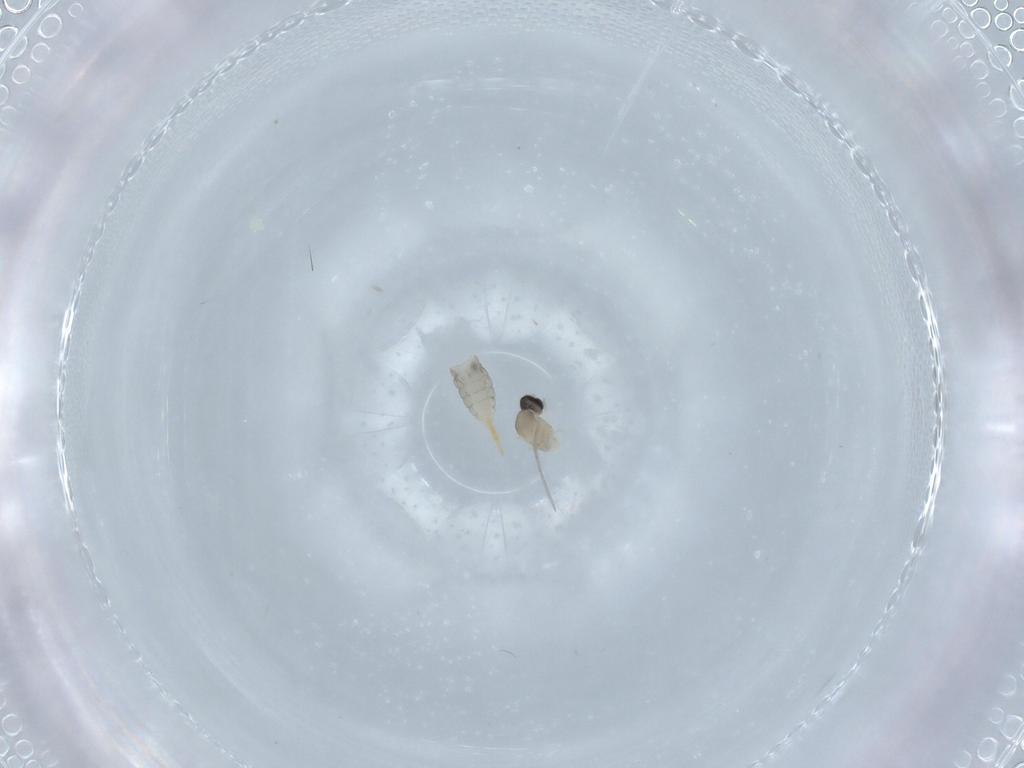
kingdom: Animalia
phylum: Arthropoda
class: Insecta
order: Diptera
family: Cecidomyiidae
